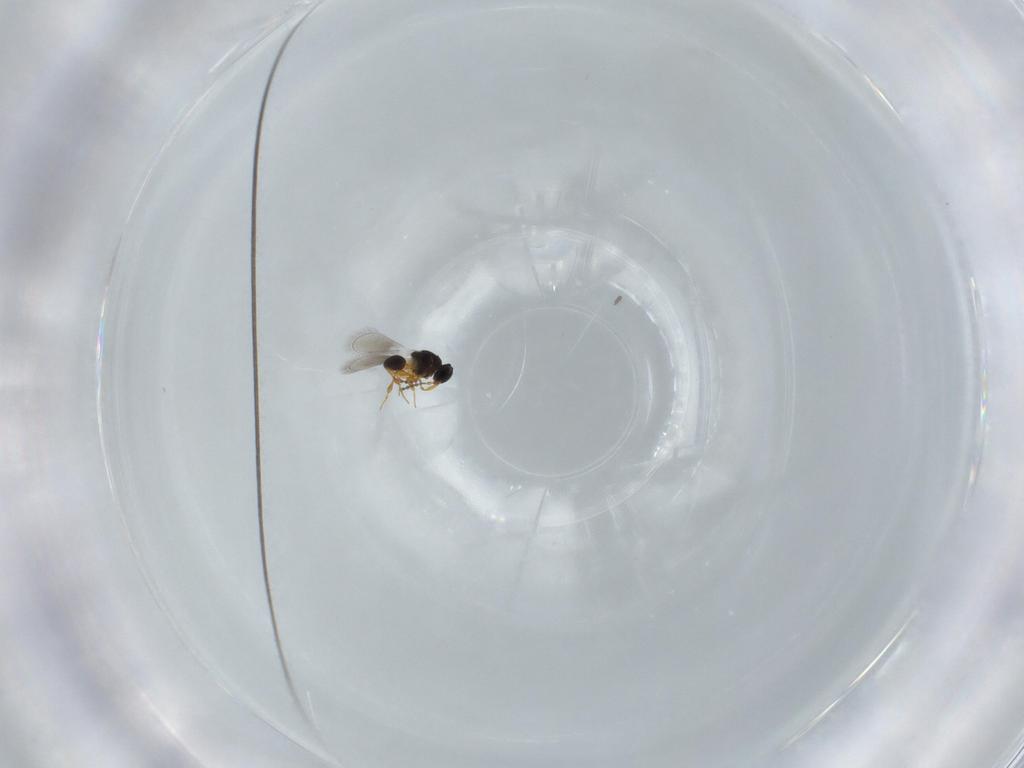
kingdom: Animalia
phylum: Arthropoda
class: Insecta
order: Hymenoptera
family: Platygastridae
